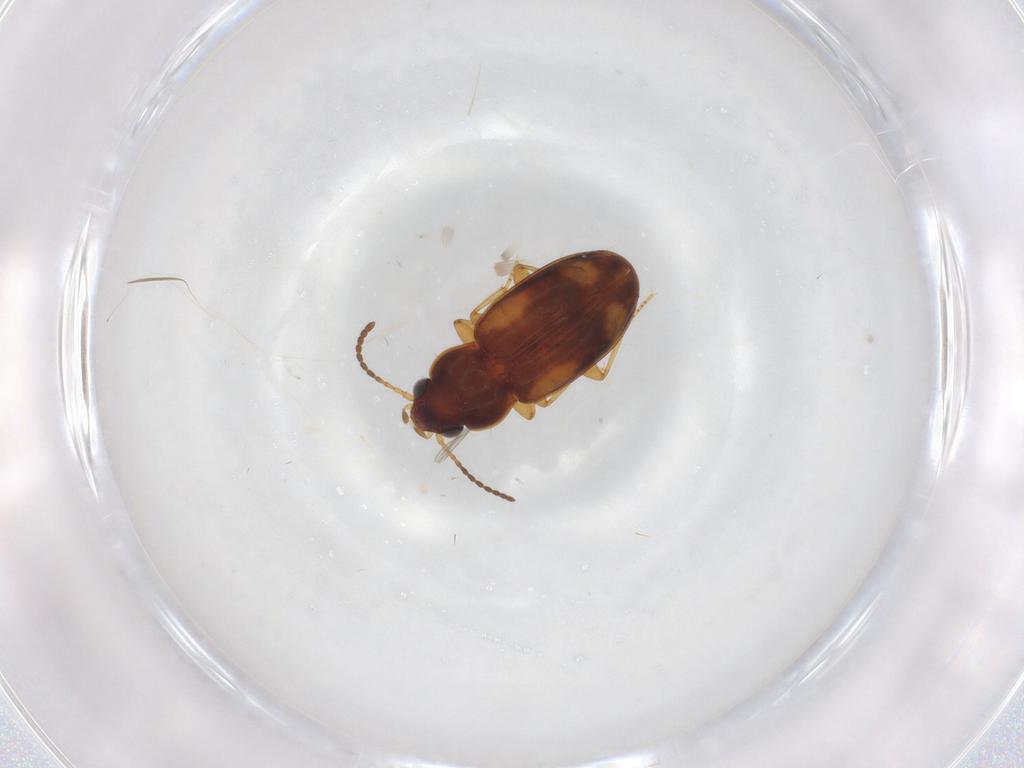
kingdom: Animalia
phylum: Arthropoda
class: Insecta
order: Coleoptera
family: Carabidae
